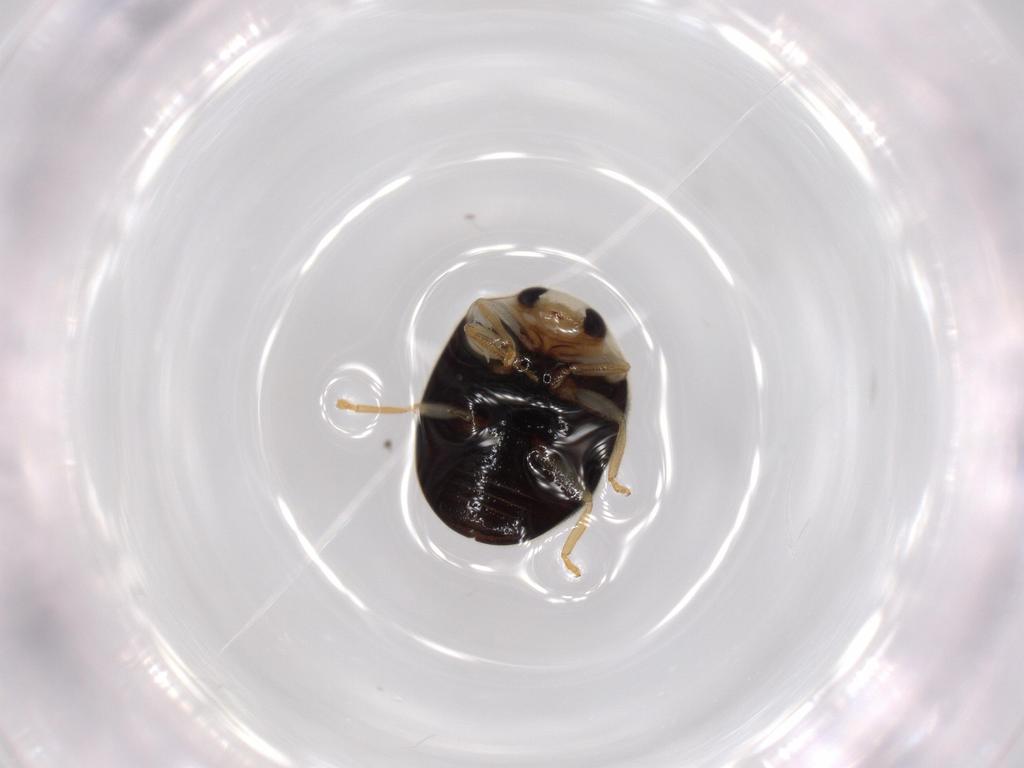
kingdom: Animalia
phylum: Arthropoda
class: Insecta
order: Coleoptera
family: Coccinellidae
